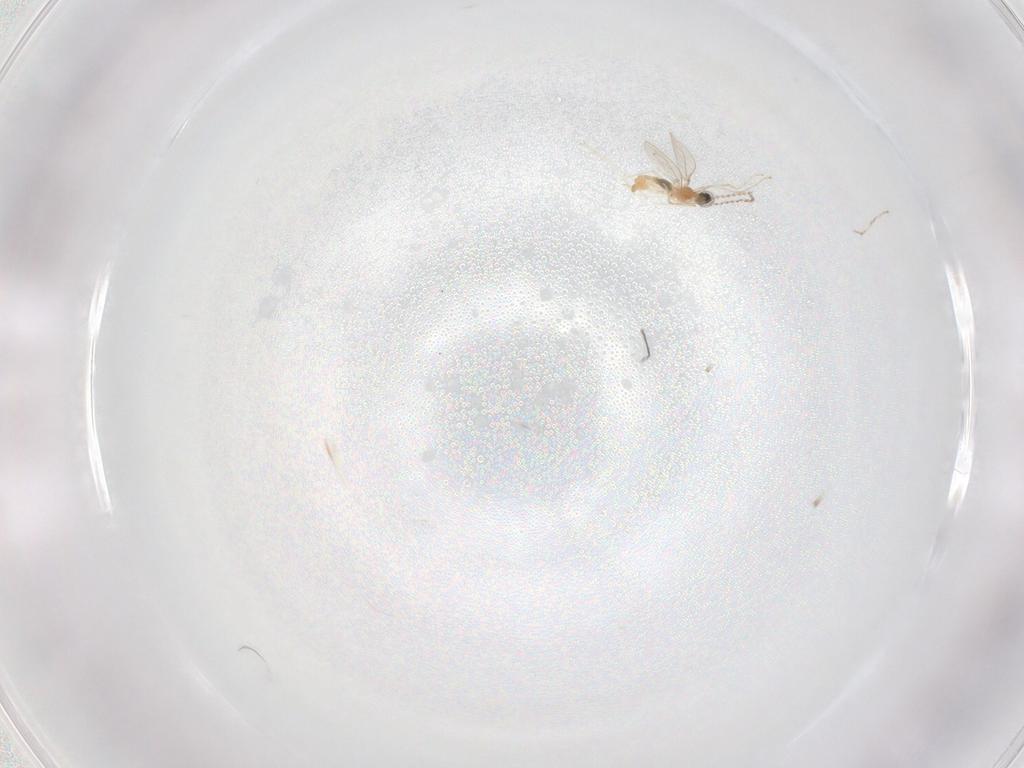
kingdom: Animalia
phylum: Arthropoda
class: Insecta
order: Diptera
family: Cecidomyiidae
